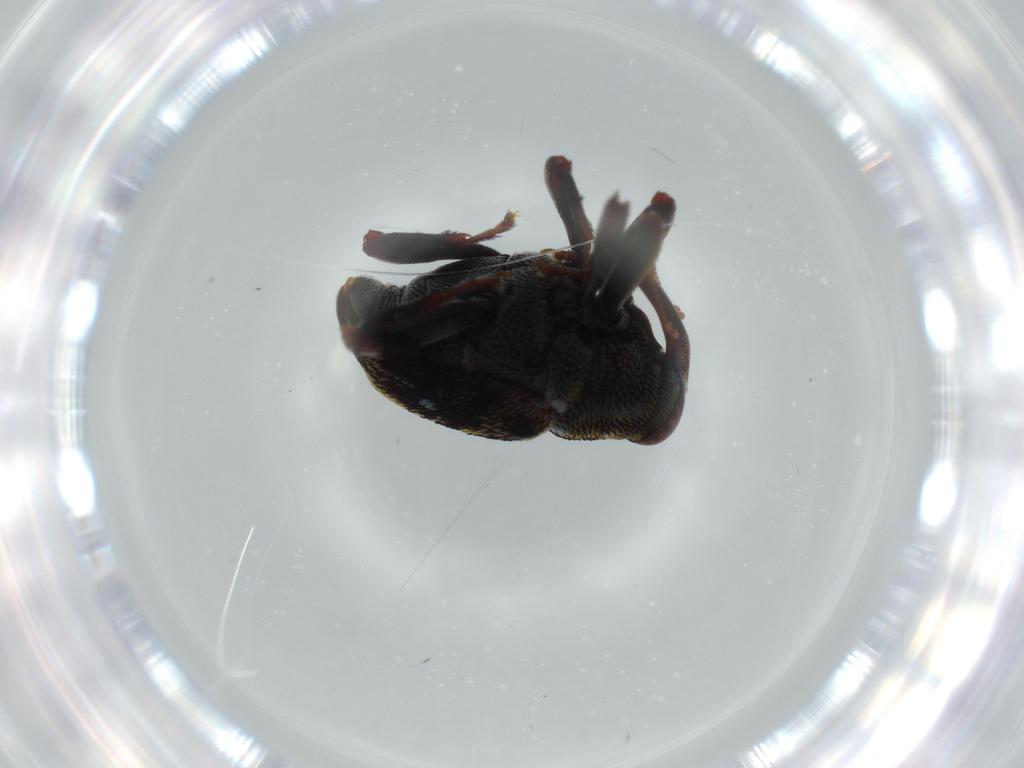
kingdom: Animalia
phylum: Arthropoda
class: Insecta
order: Coleoptera
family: Curculionidae
